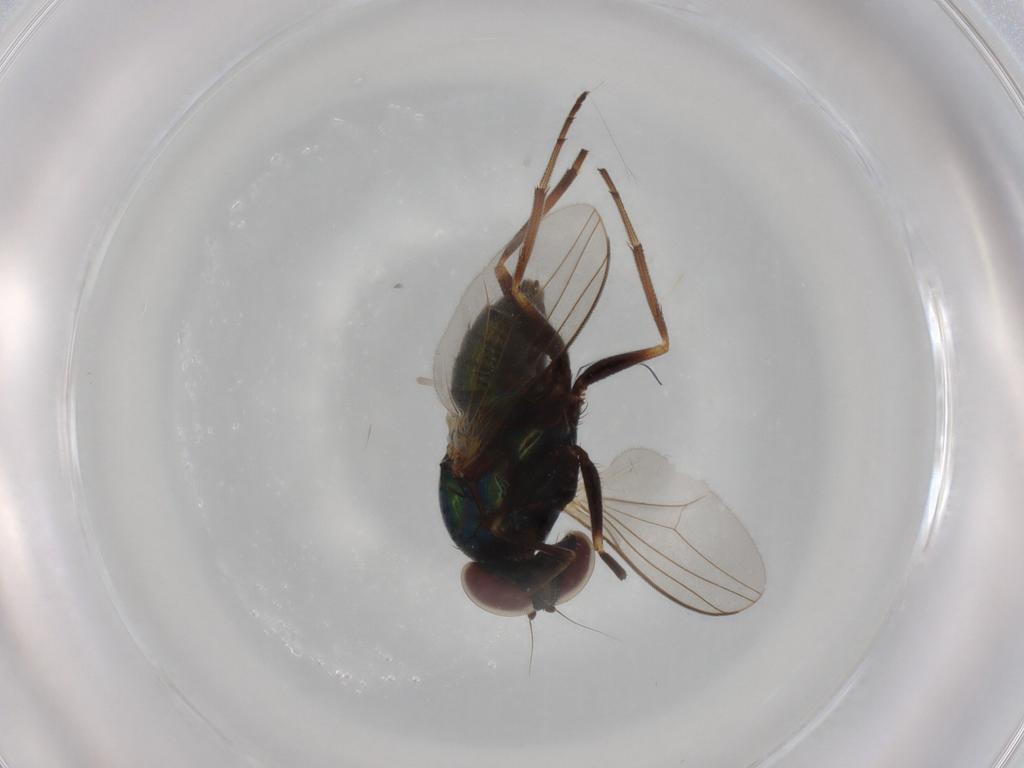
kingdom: Animalia
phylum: Arthropoda
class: Insecta
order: Diptera
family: Dolichopodidae
